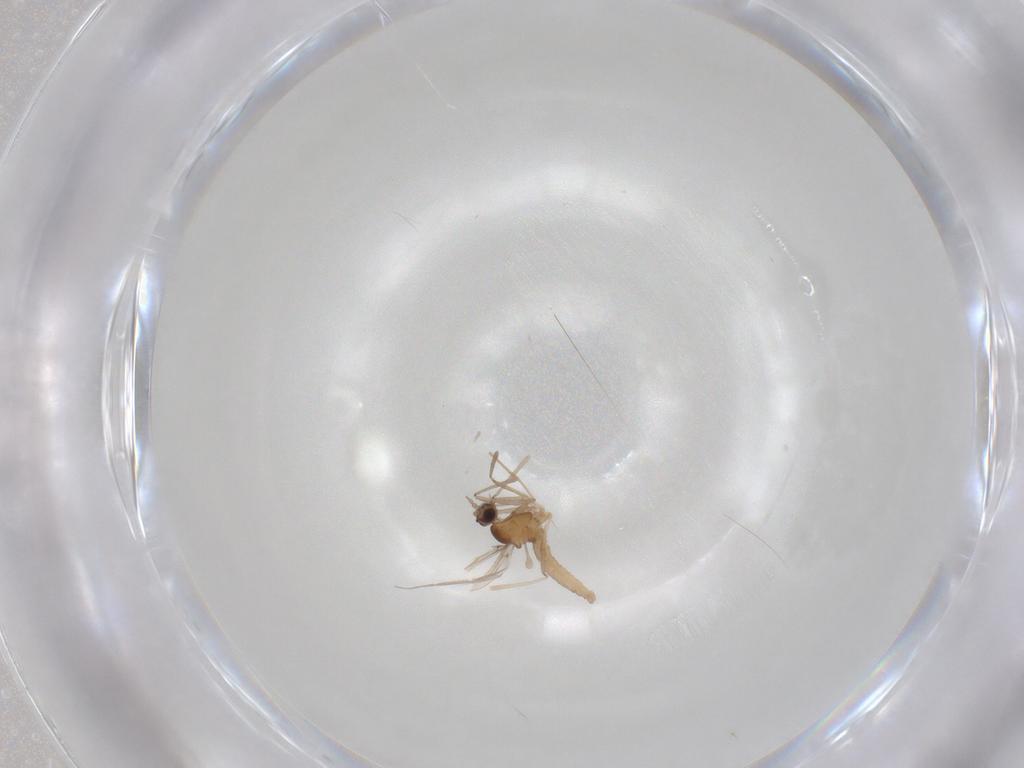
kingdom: Animalia
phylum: Arthropoda
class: Insecta
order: Diptera
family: Cecidomyiidae
